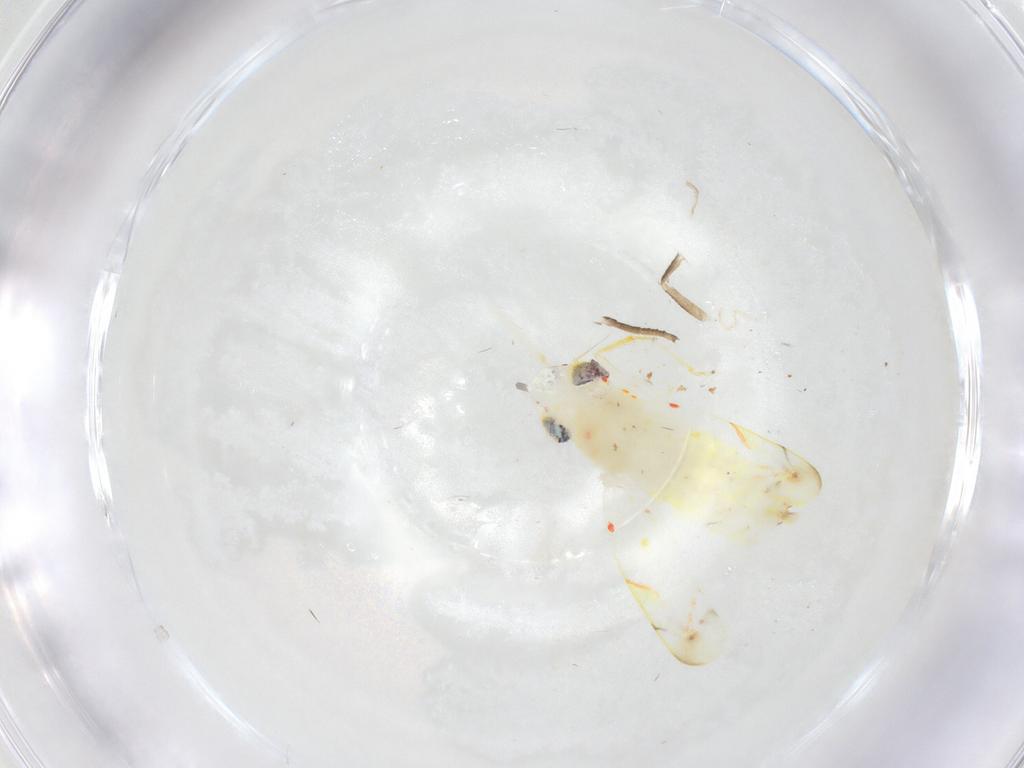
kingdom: Animalia
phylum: Arthropoda
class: Insecta
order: Hemiptera
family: Cicadellidae
